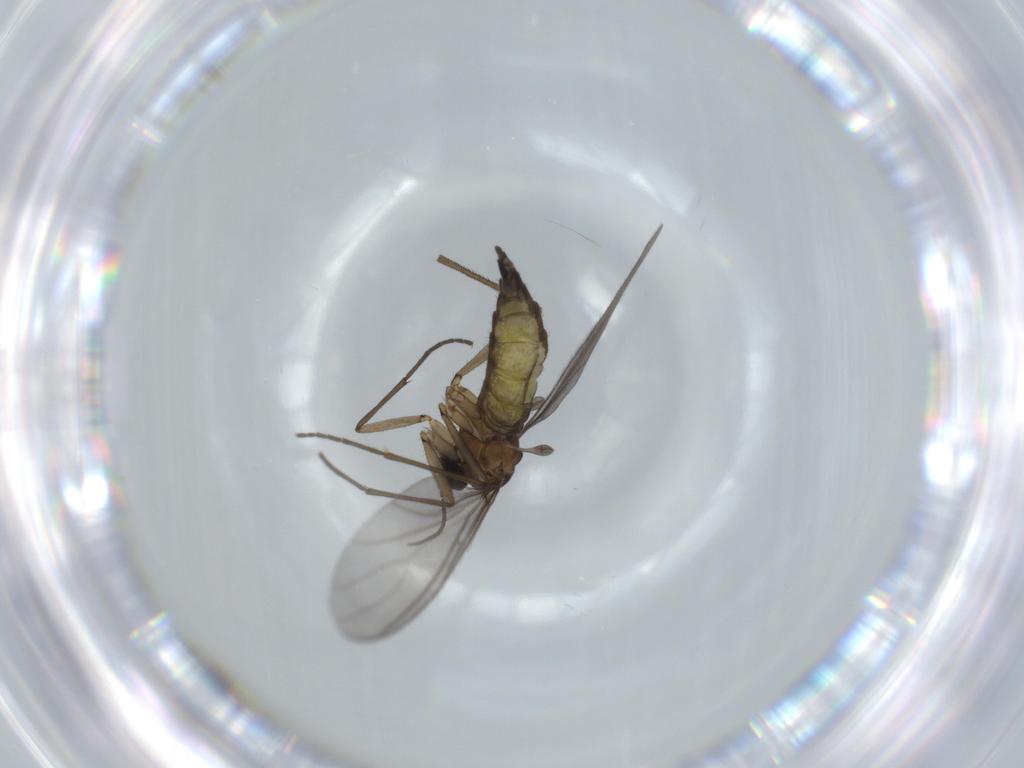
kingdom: Animalia
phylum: Arthropoda
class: Insecta
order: Diptera
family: Sciaridae
